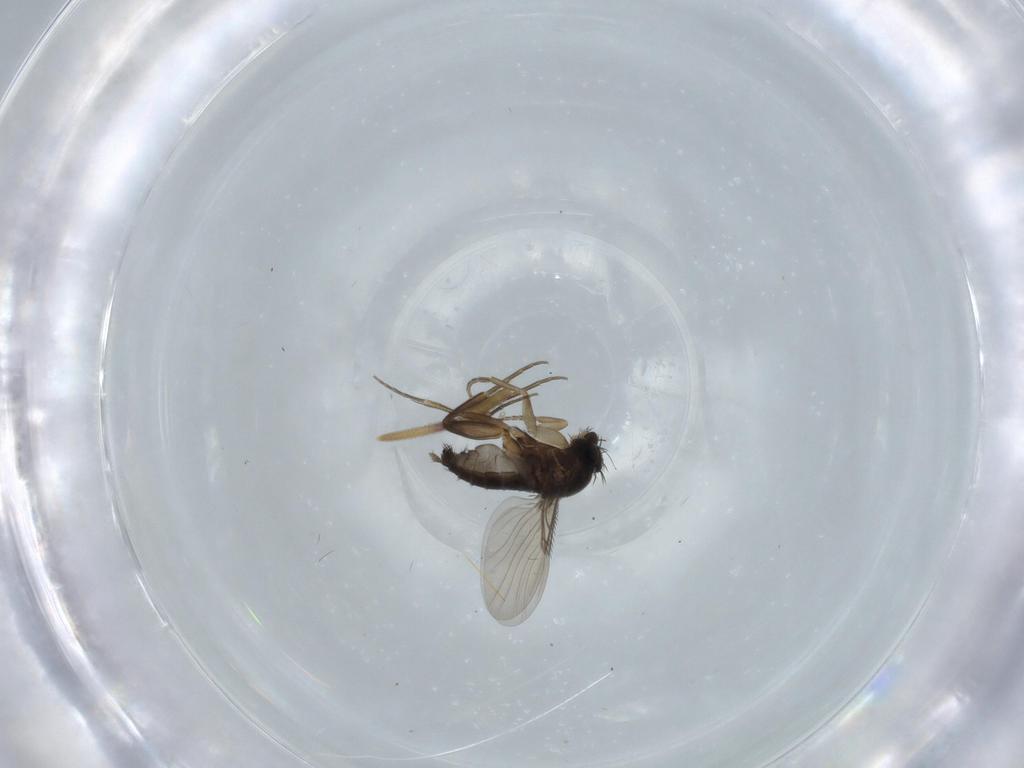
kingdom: Animalia
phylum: Arthropoda
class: Insecta
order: Diptera
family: Phoridae
